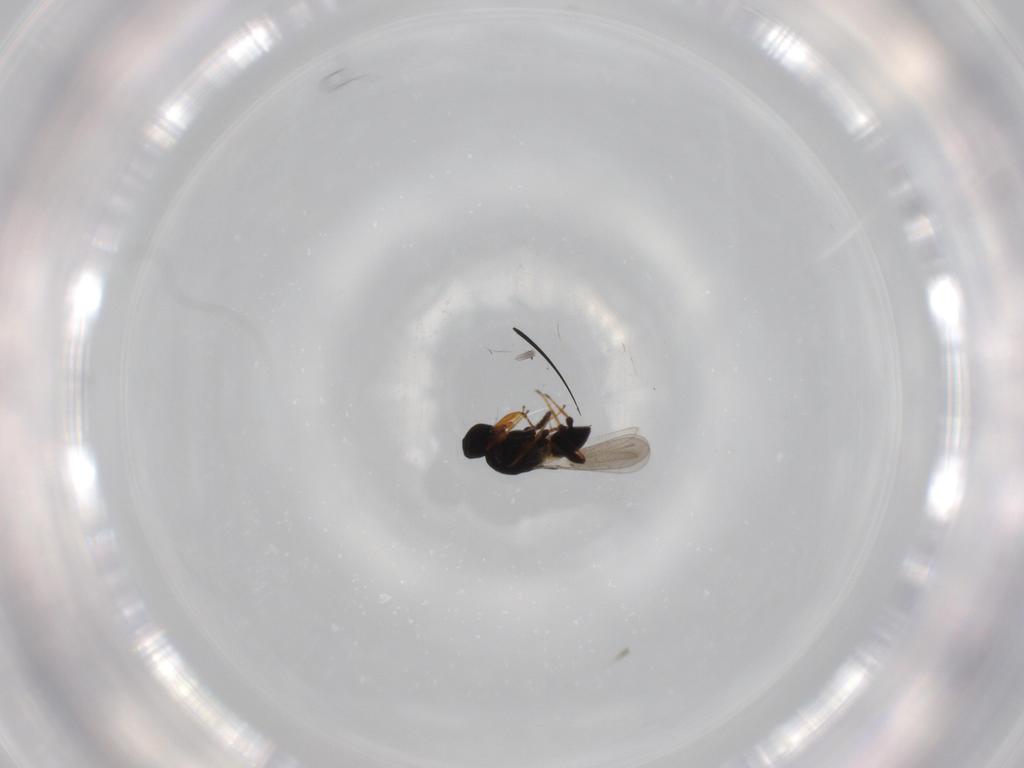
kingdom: Animalia
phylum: Arthropoda
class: Insecta
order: Hymenoptera
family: Platygastridae
